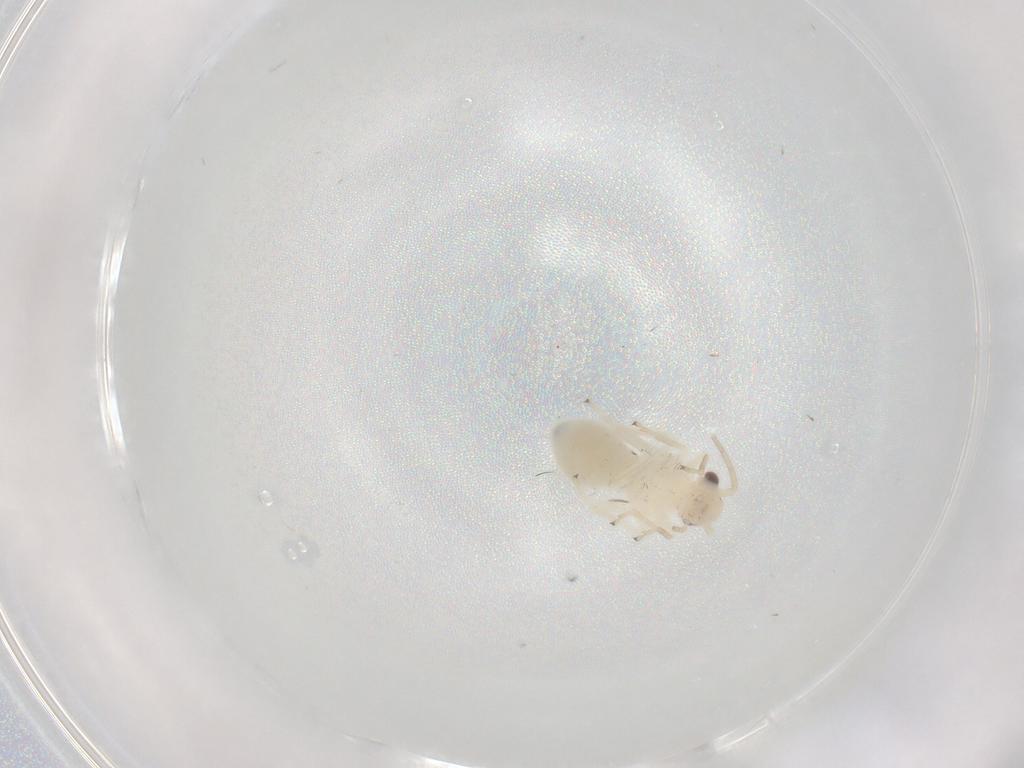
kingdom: Animalia
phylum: Arthropoda
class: Insecta
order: Psocodea
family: Caeciliusidae
